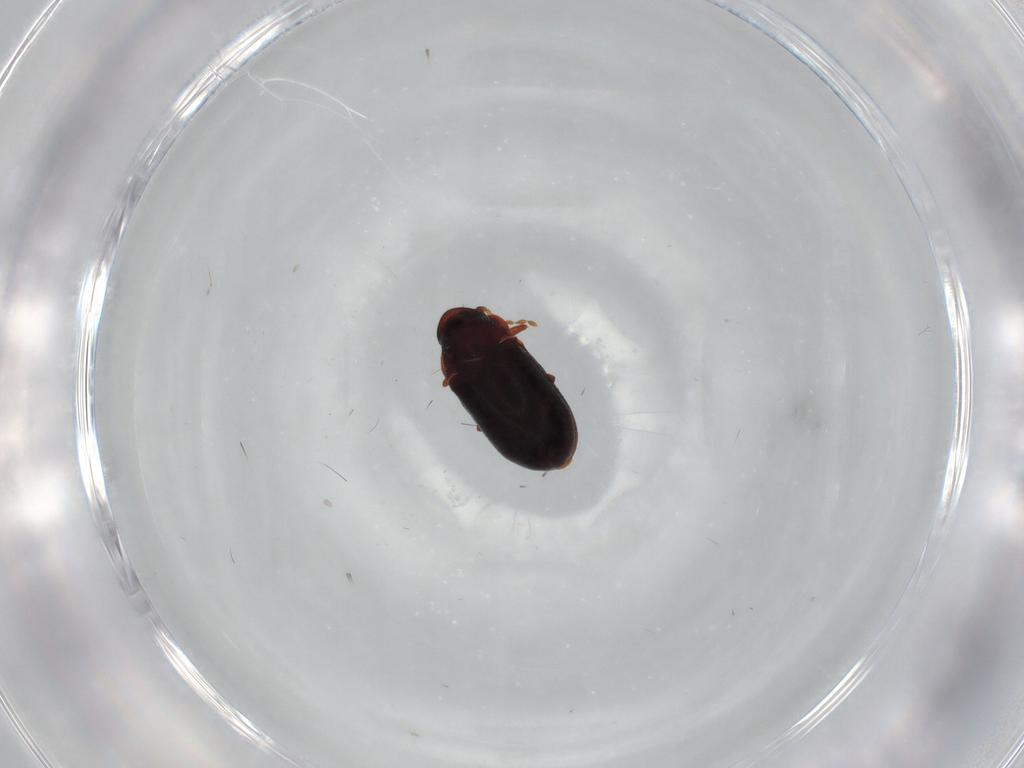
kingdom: Animalia
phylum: Arthropoda
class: Insecta
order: Coleoptera
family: Ptinidae
